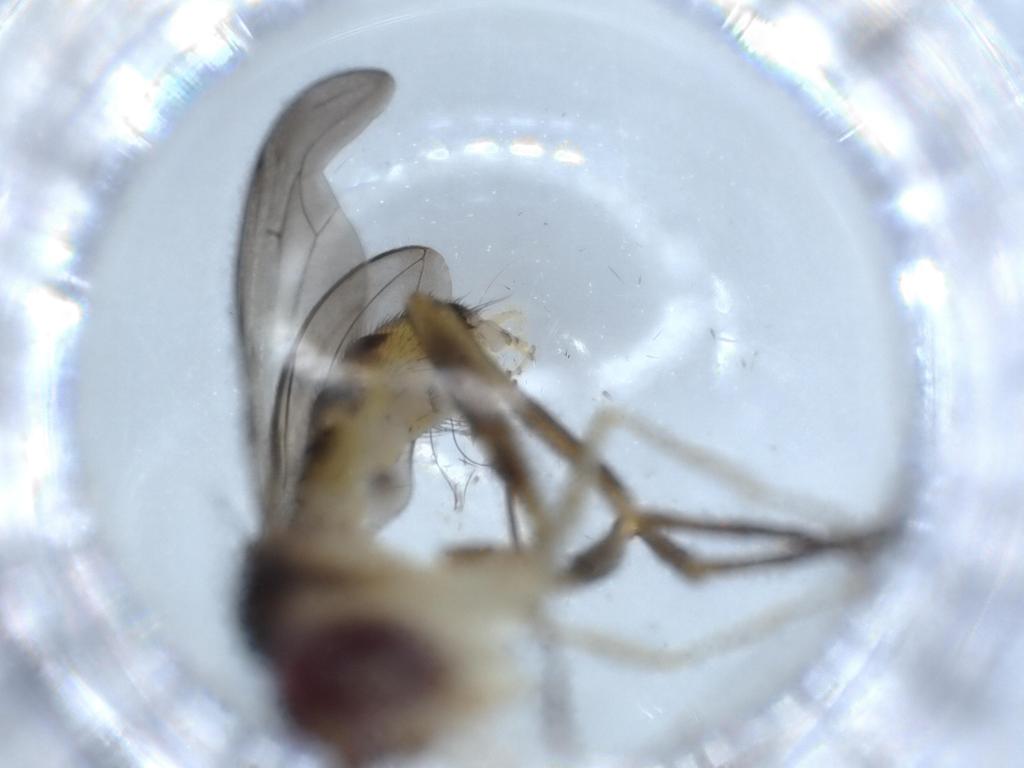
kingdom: Animalia
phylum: Arthropoda
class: Insecta
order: Diptera
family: Conopidae
